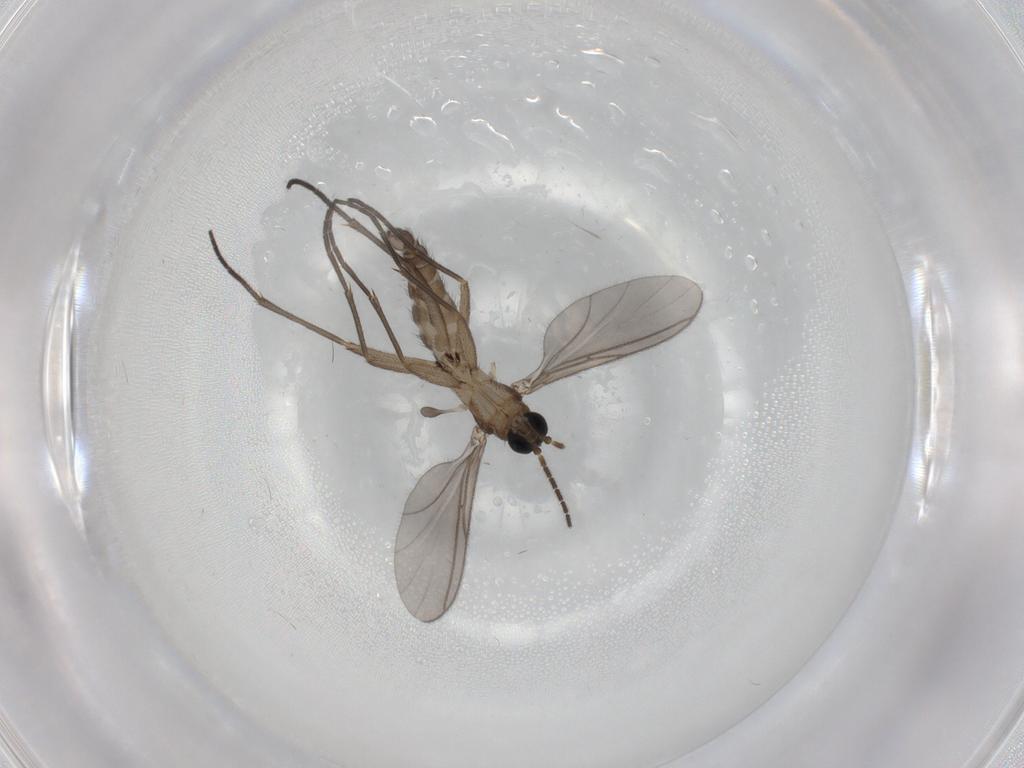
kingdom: Animalia
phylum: Arthropoda
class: Insecta
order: Diptera
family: Sciaridae
